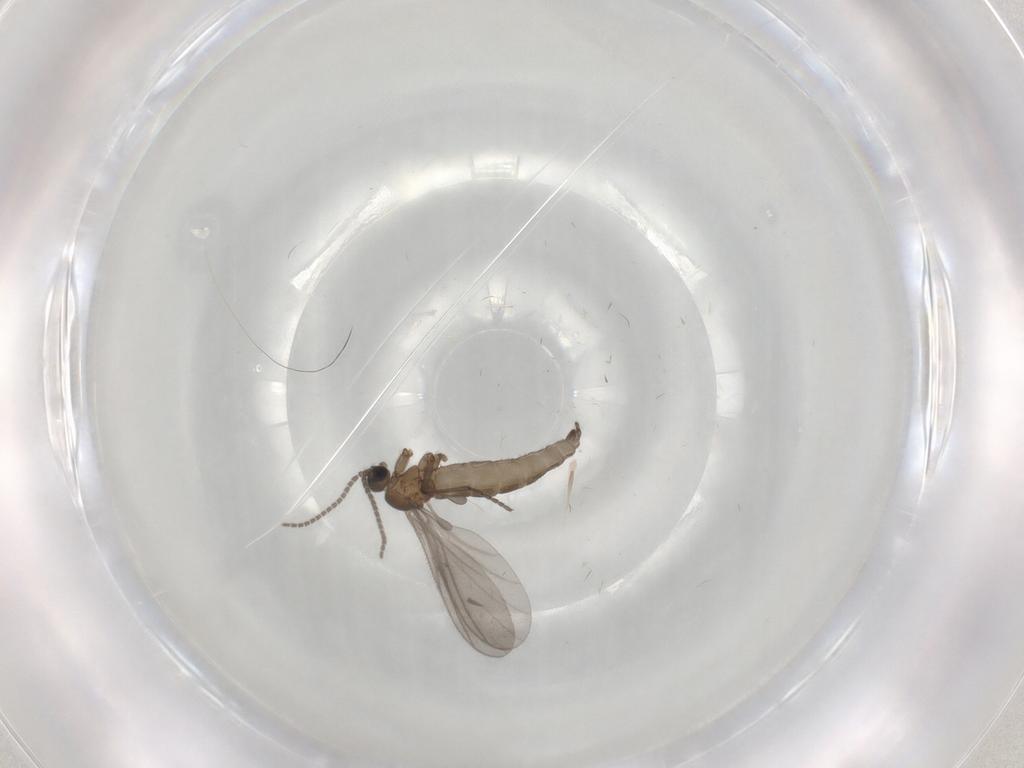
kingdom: Animalia
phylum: Arthropoda
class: Insecta
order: Diptera
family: Sciaridae
